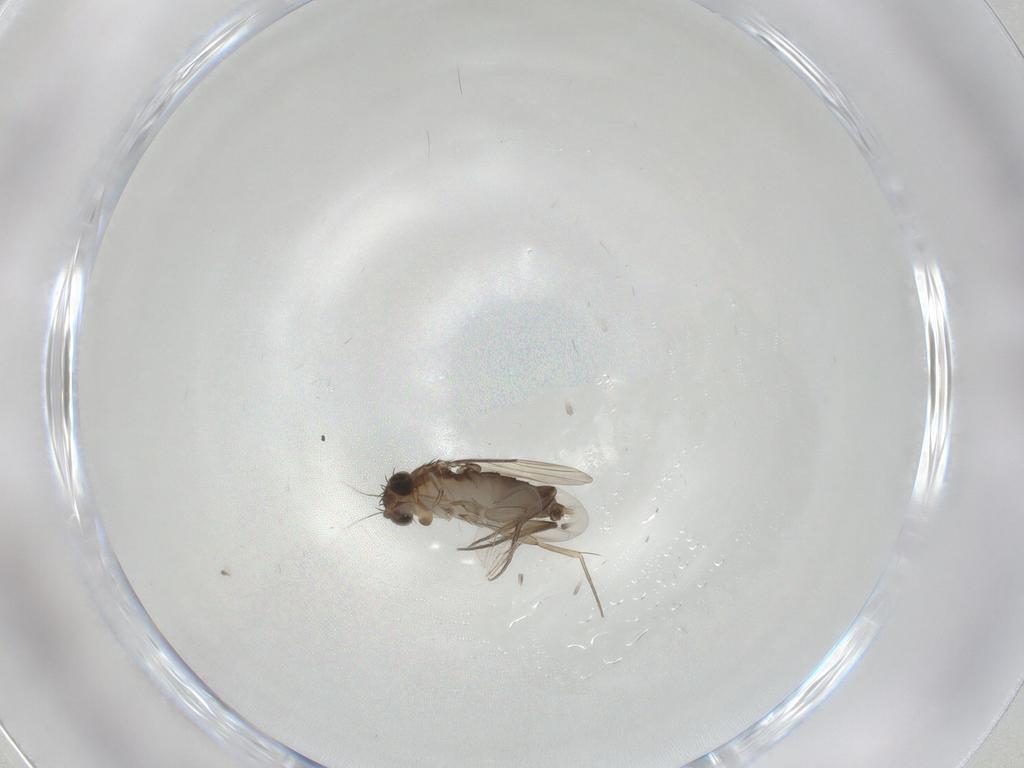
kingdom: Animalia
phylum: Arthropoda
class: Insecta
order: Diptera
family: Phoridae
